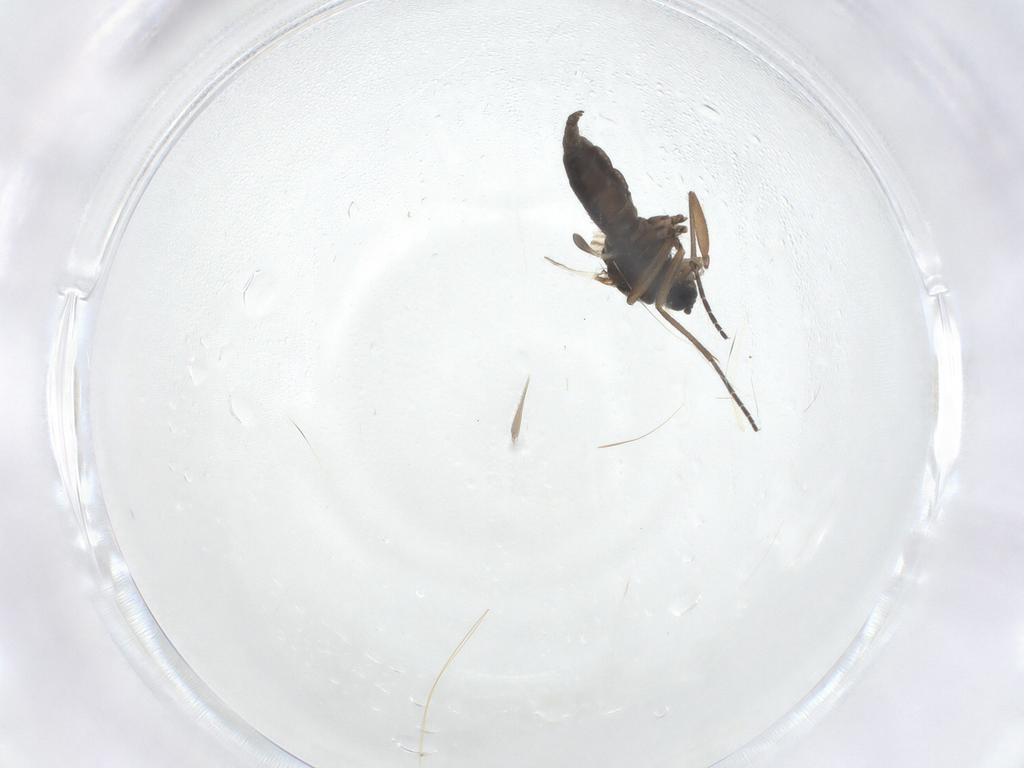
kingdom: Animalia
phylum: Arthropoda
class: Insecta
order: Diptera
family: Sciaridae
